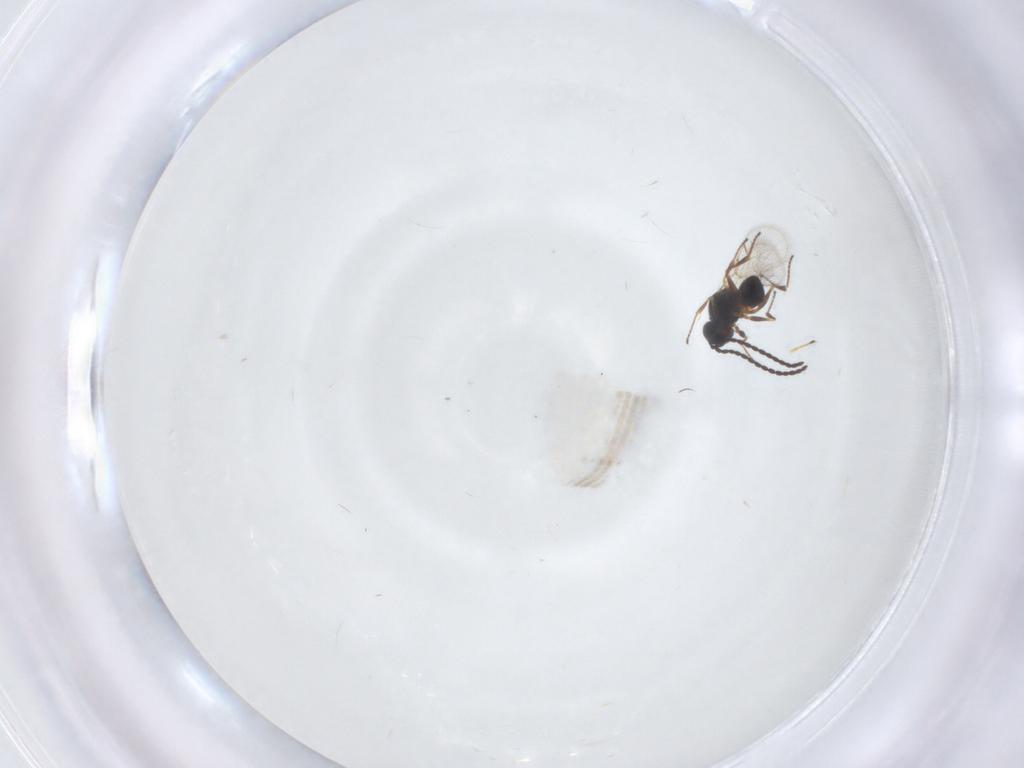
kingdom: Animalia
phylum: Arthropoda
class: Insecta
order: Hymenoptera
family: Figitidae
